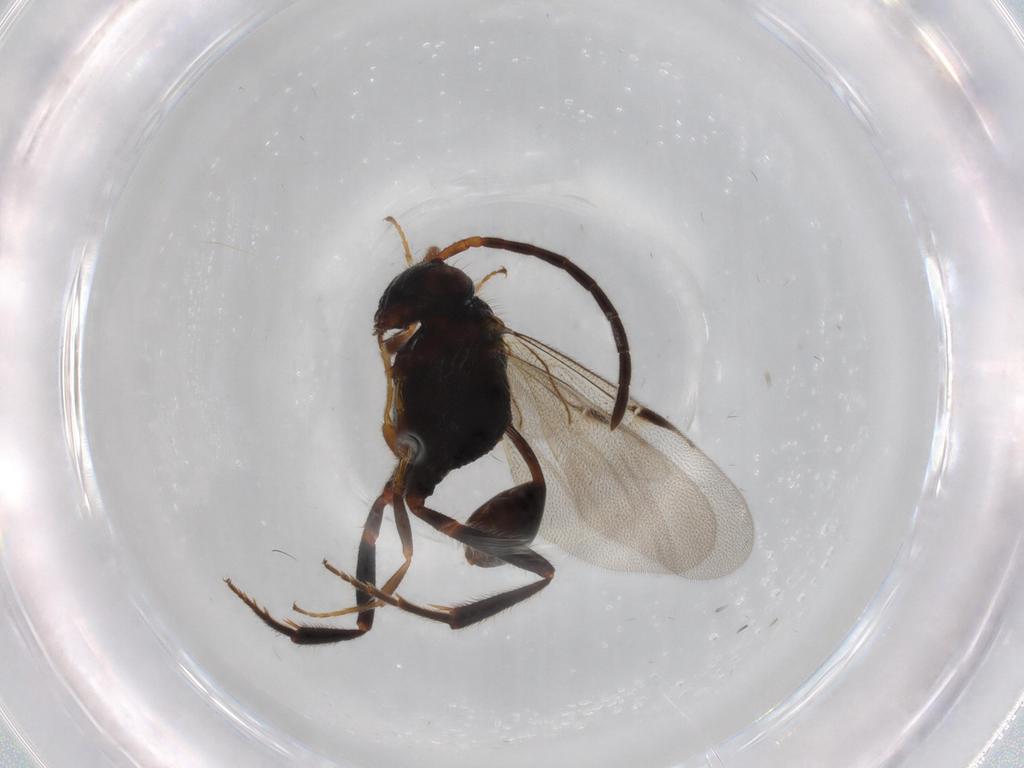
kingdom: Animalia
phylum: Arthropoda
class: Insecta
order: Hymenoptera
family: Evaniidae
